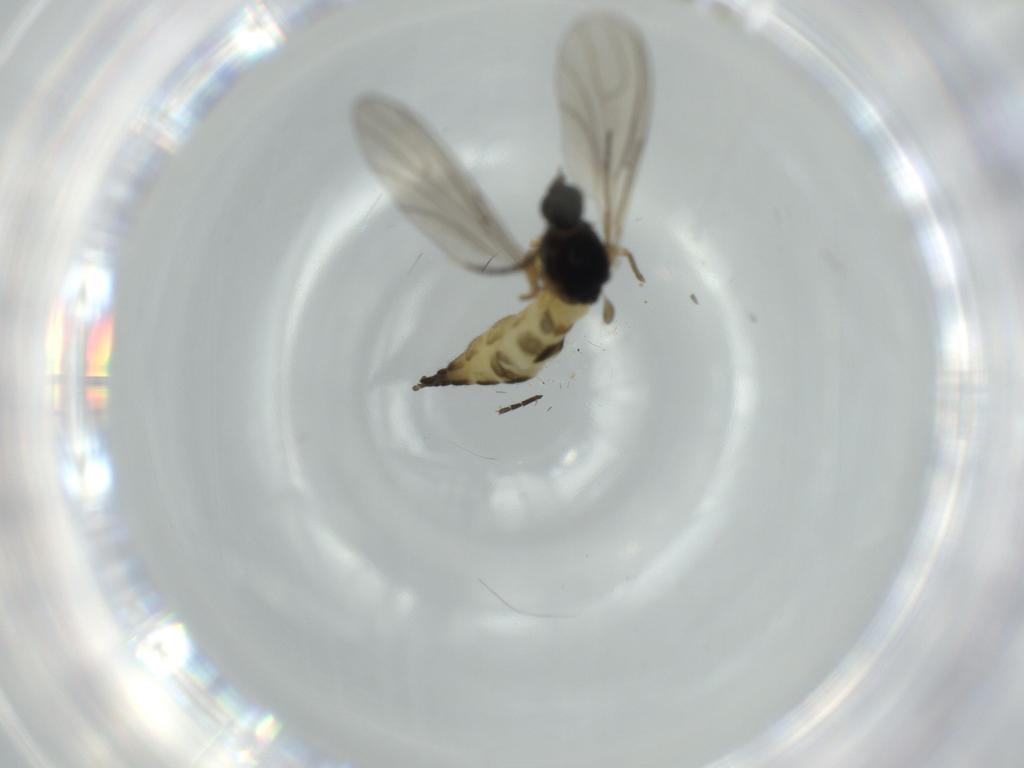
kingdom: Animalia
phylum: Arthropoda
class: Insecta
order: Diptera
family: Sciaridae
